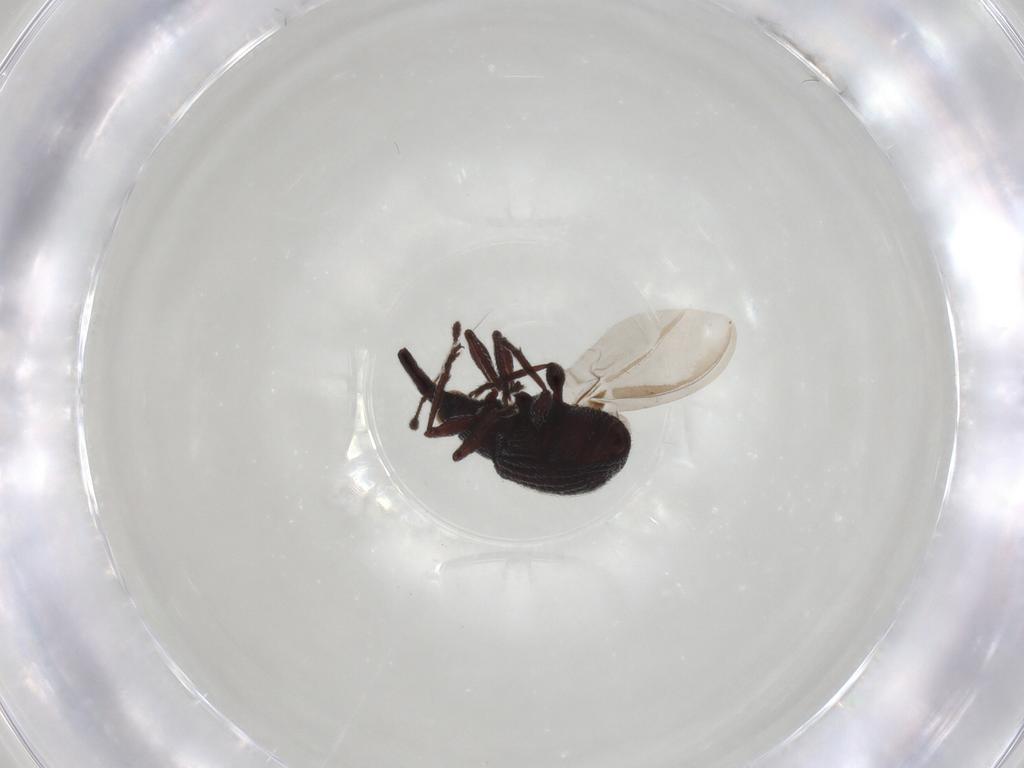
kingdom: Animalia
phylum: Arthropoda
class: Insecta
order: Coleoptera
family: Brentidae
